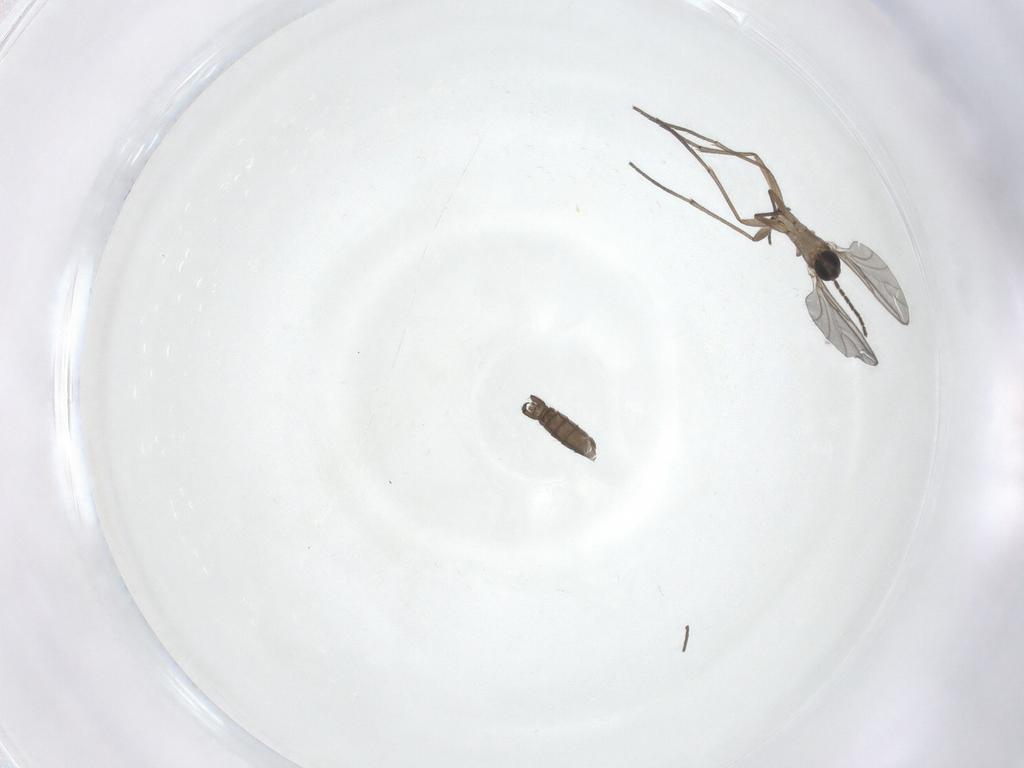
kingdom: Animalia
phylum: Arthropoda
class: Insecta
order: Diptera
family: Sciaridae
